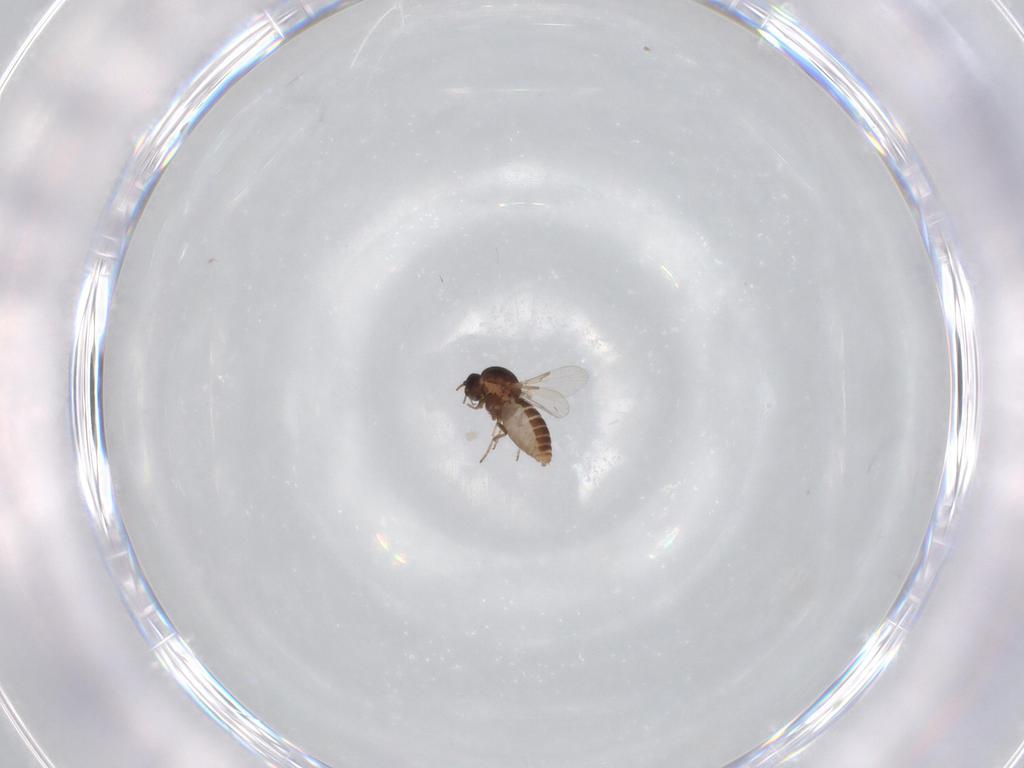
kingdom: Animalia
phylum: Arthropoda
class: Insecta
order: Diptera
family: Ceratopogonidae
